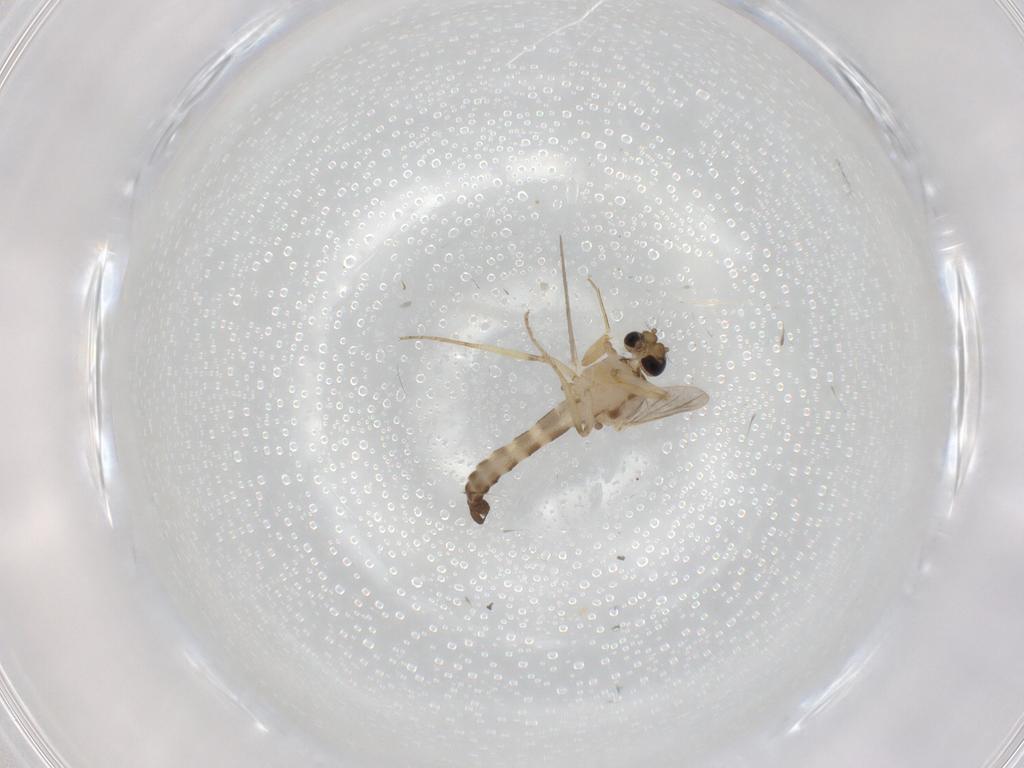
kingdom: Animalia
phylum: Arthropoda
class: Insecta
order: Diptera
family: Ceratopogonidae
